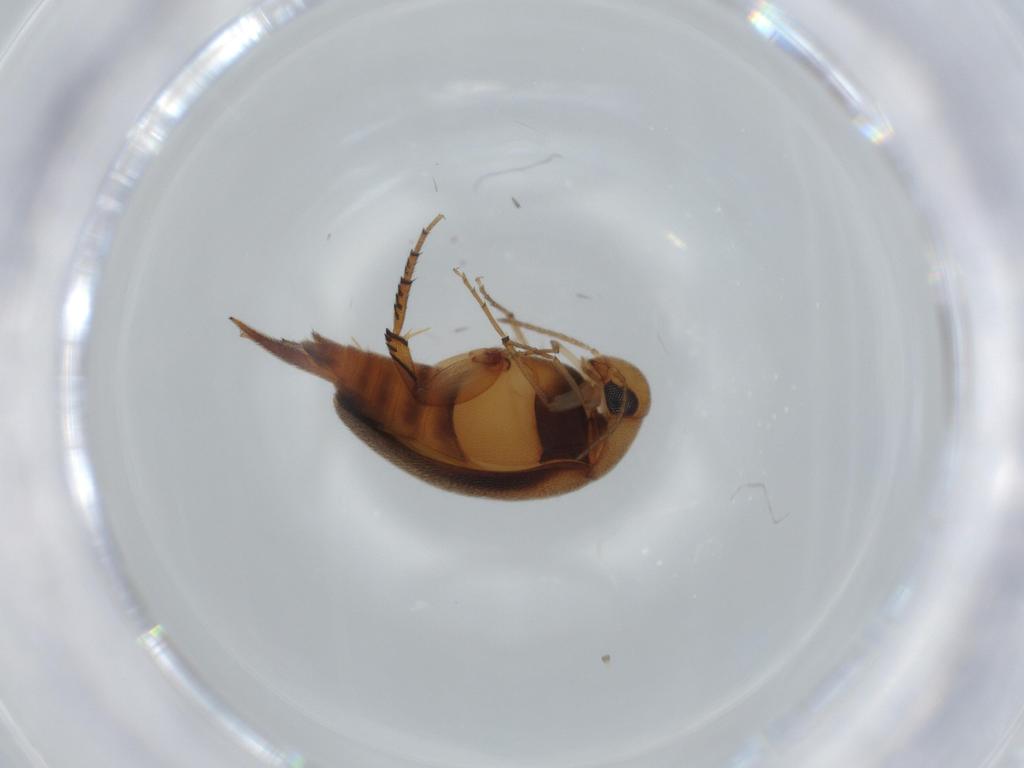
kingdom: Animalia
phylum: Arthropoda
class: Insecta
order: Coleoptera
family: Mordellidae
